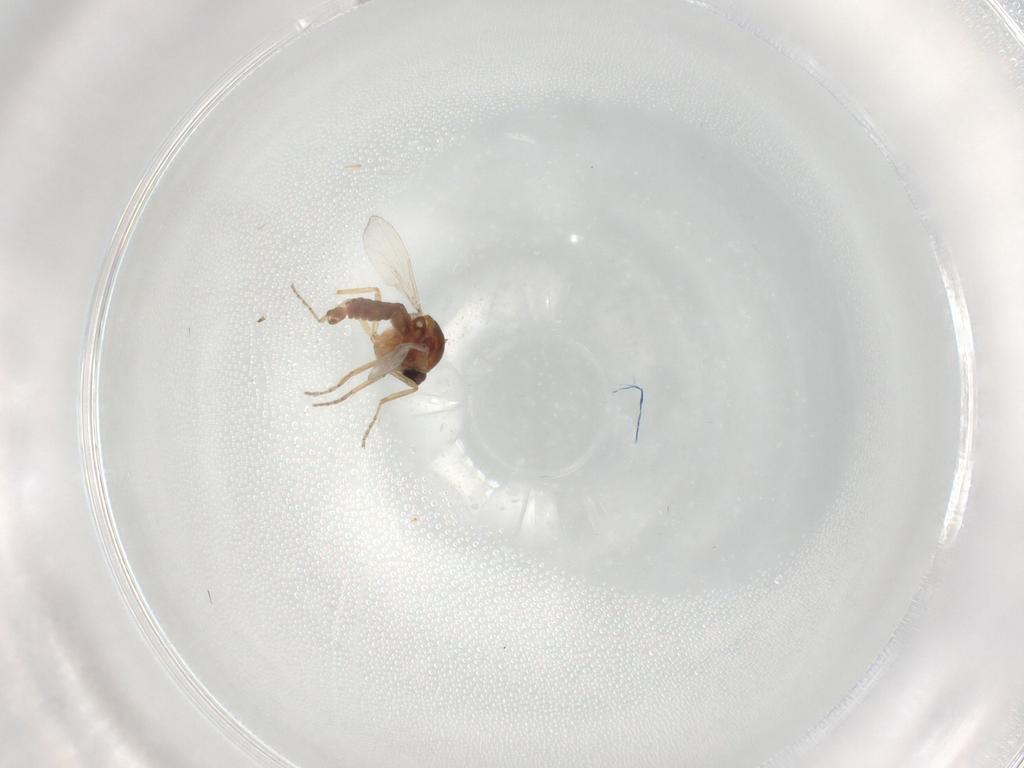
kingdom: Animalia
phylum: Arthropoda
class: Insecta
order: Diptera
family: Ceratopogonidae
